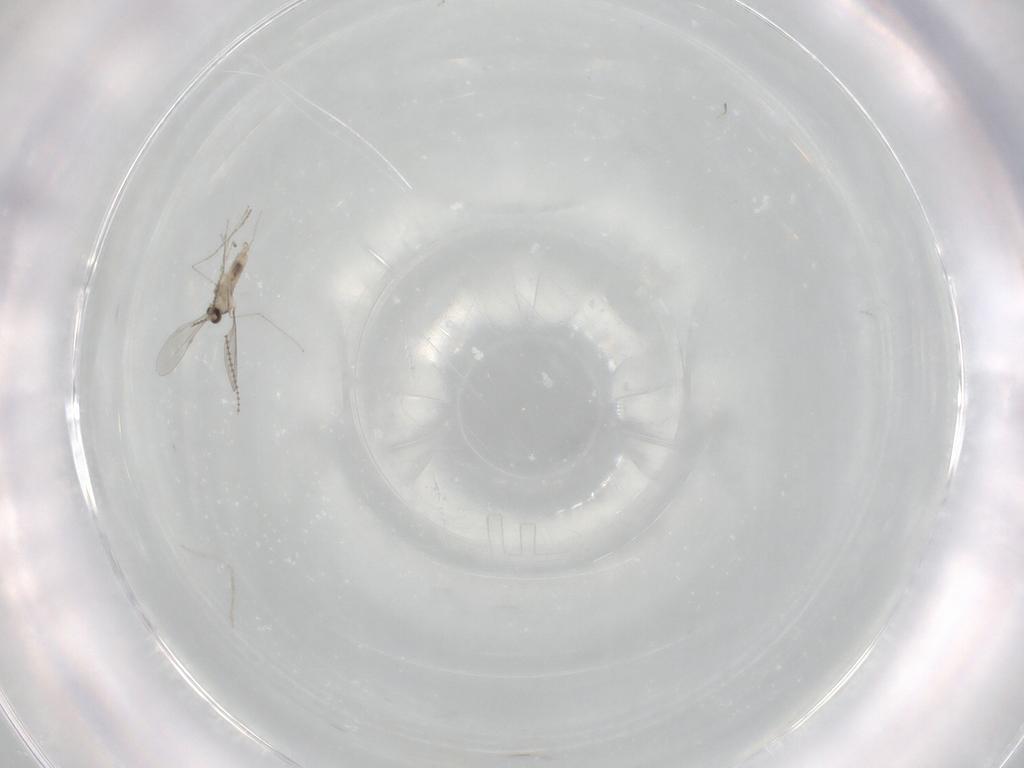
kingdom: Animalia
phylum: Arthropoda
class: Insecta
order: Diptera
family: Cecidomyiidae
